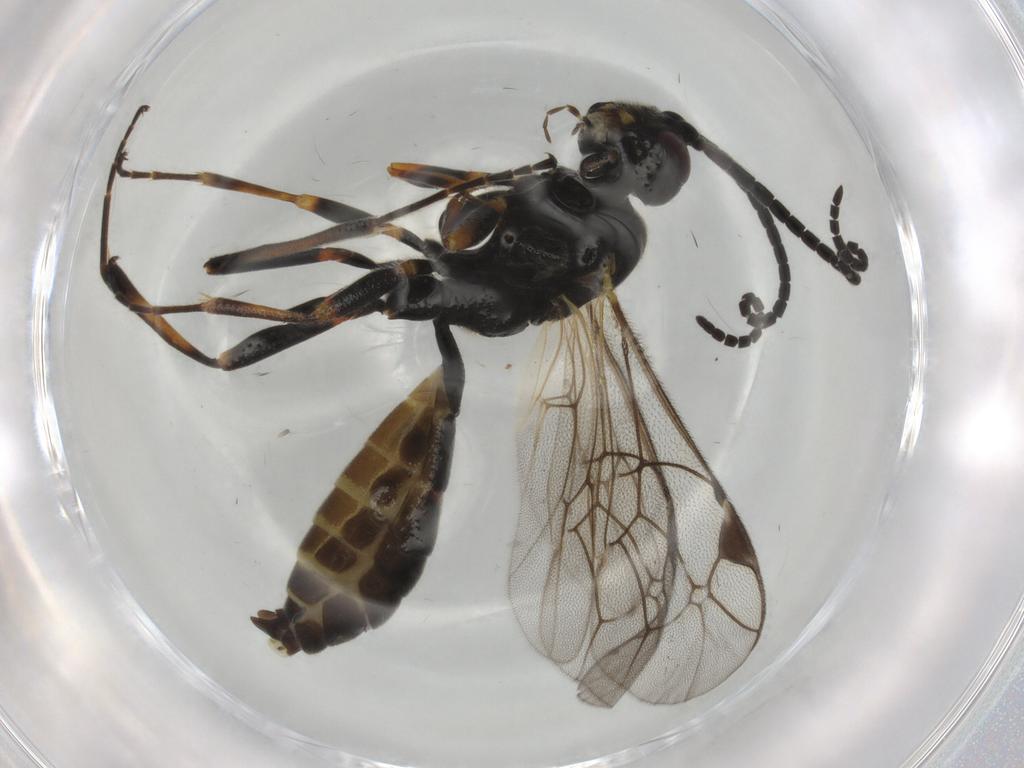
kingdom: Animalia
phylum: Arthropoda
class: Insecta
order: Hymenoptera
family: Ichneumonidae
